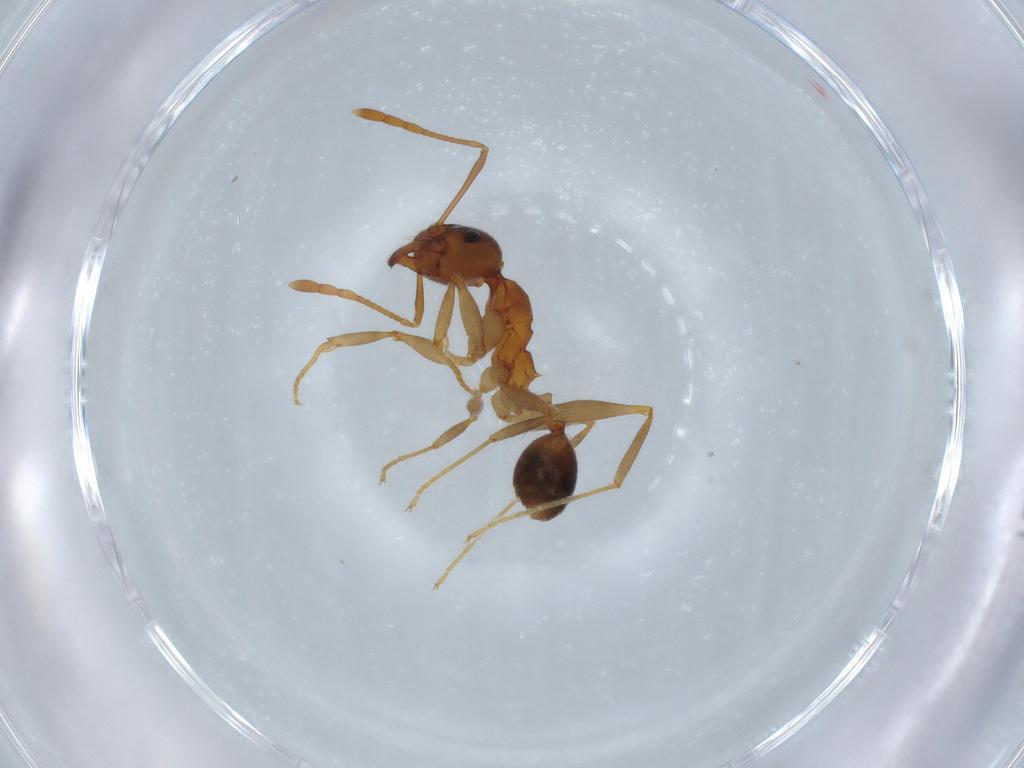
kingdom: Animalia
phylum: Arthropoda
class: Insecta
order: Hymenoptera
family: Formicidae
